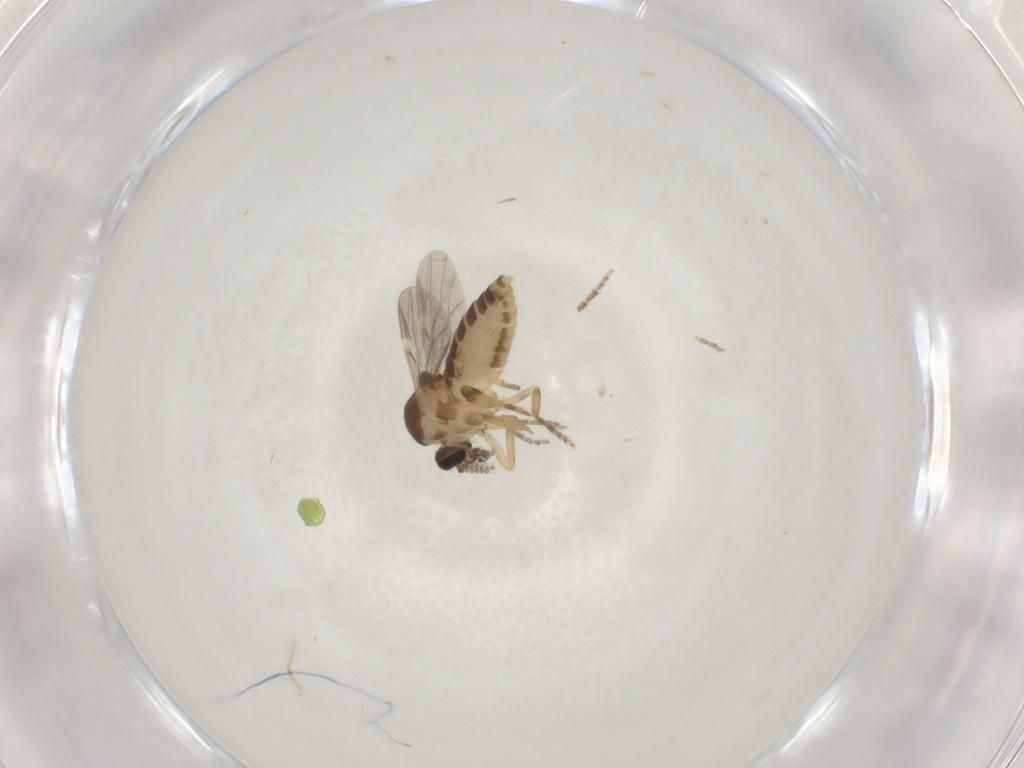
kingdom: Animalia
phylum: Arthropoda
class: Insecta
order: Diptera
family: Ceratopogonidae
